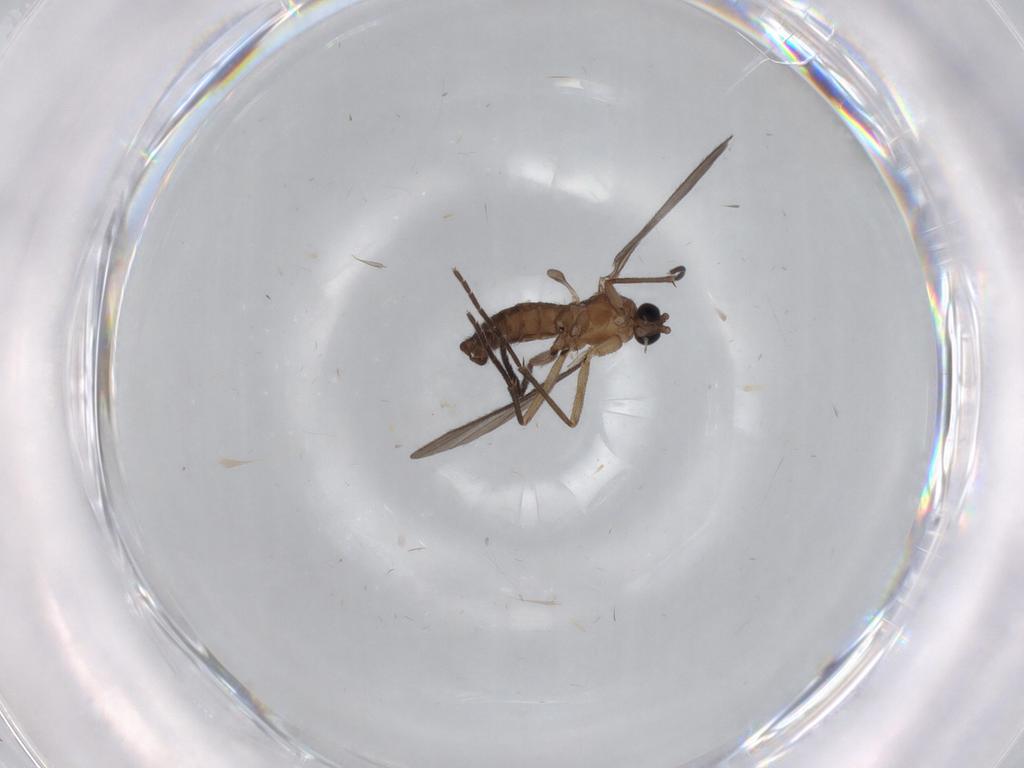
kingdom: Animalia
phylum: Arthropoda
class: Insecta
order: Diptera
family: Sciaridae
